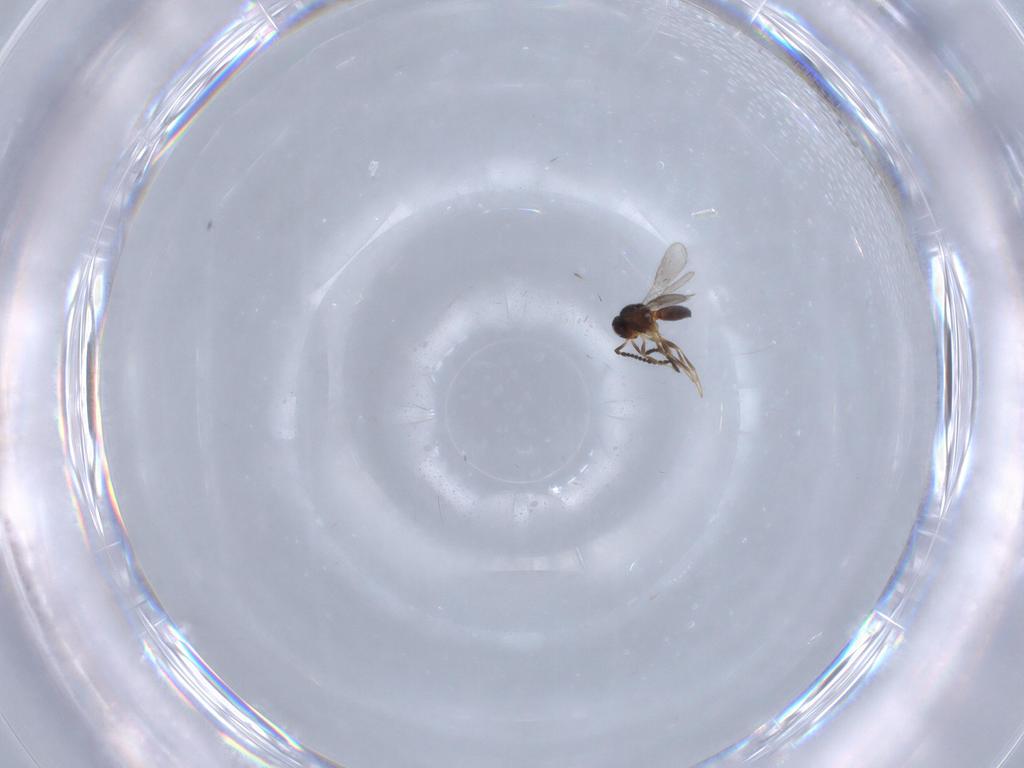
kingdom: Animalia
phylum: Arthropoda
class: Insecta
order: Hymenoptera
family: Scelionidae
